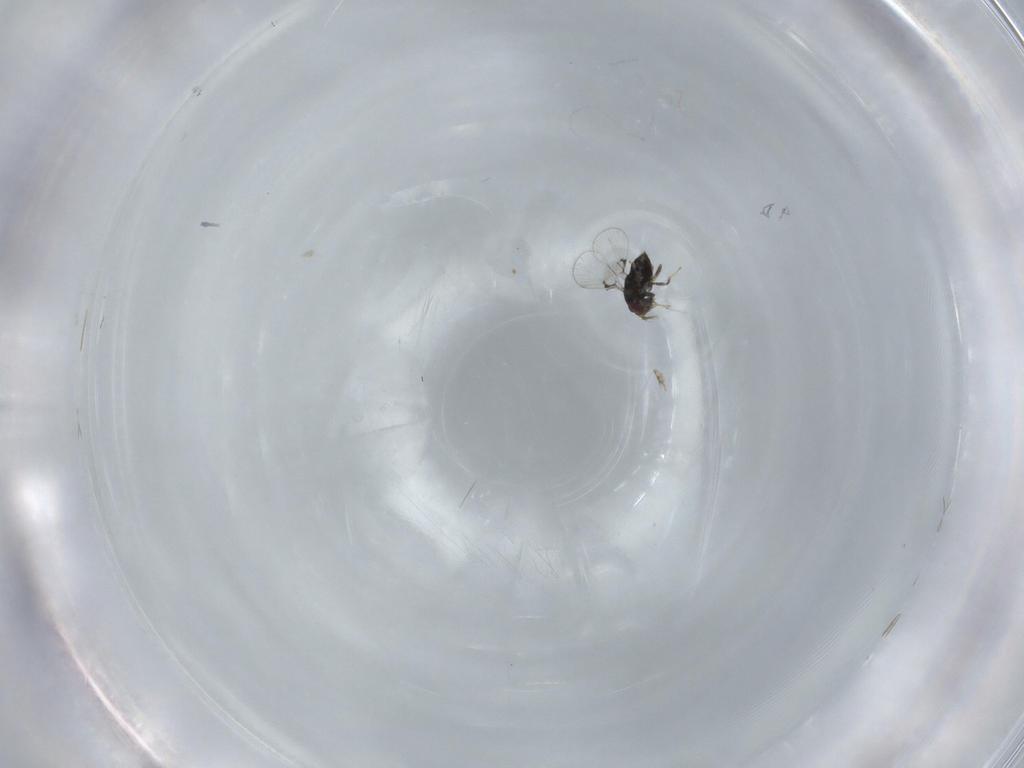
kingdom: Animalia
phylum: Arthropoda
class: Insecta
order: Hymenoptera
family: Trichogrammatidae
